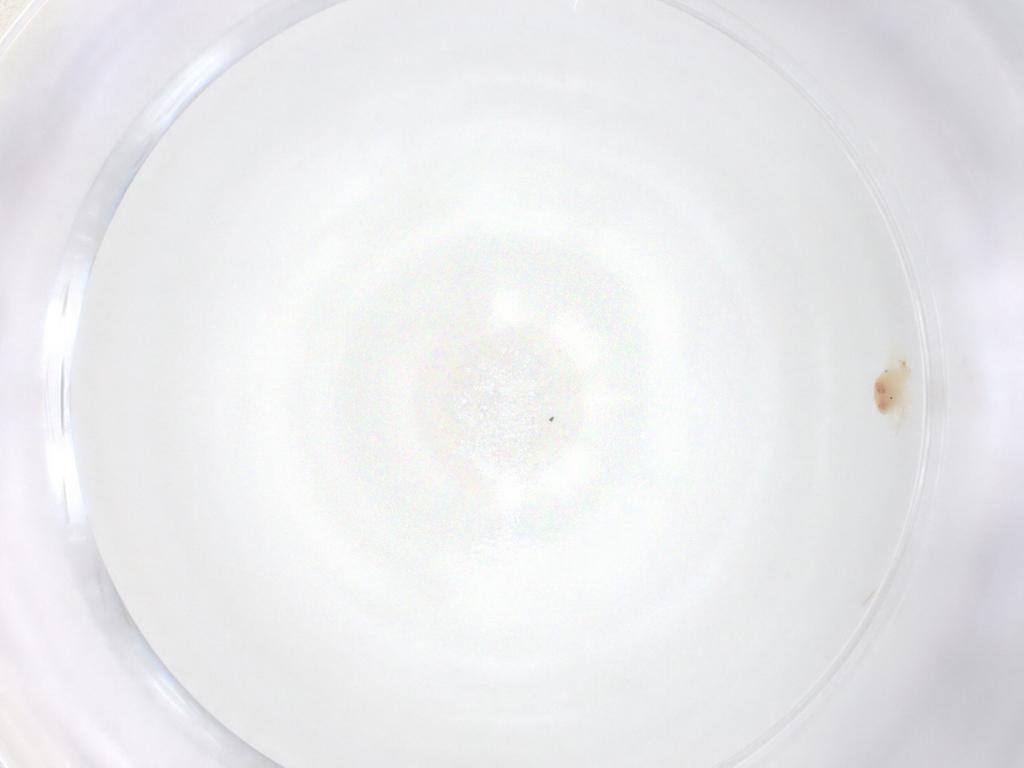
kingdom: Animalia
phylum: Arthropoda
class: Arachnida
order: Trombidiformes
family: Anystidae
